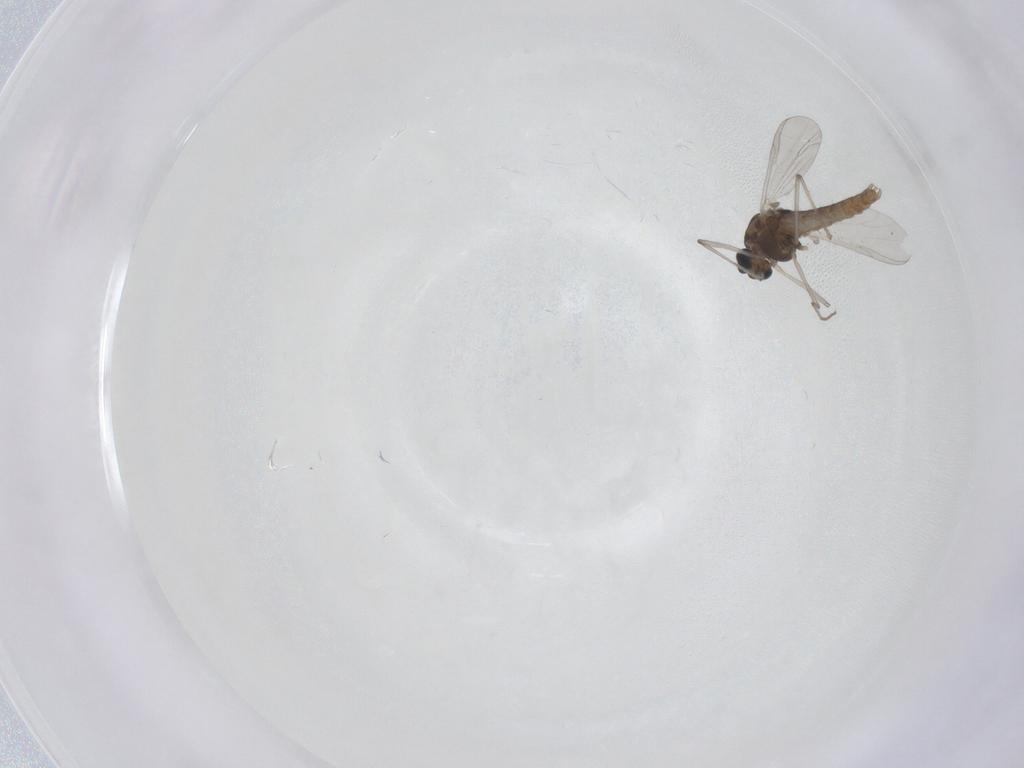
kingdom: Animalia
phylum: Arthropoda
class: Insecta
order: Diptera
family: Chironomidae
